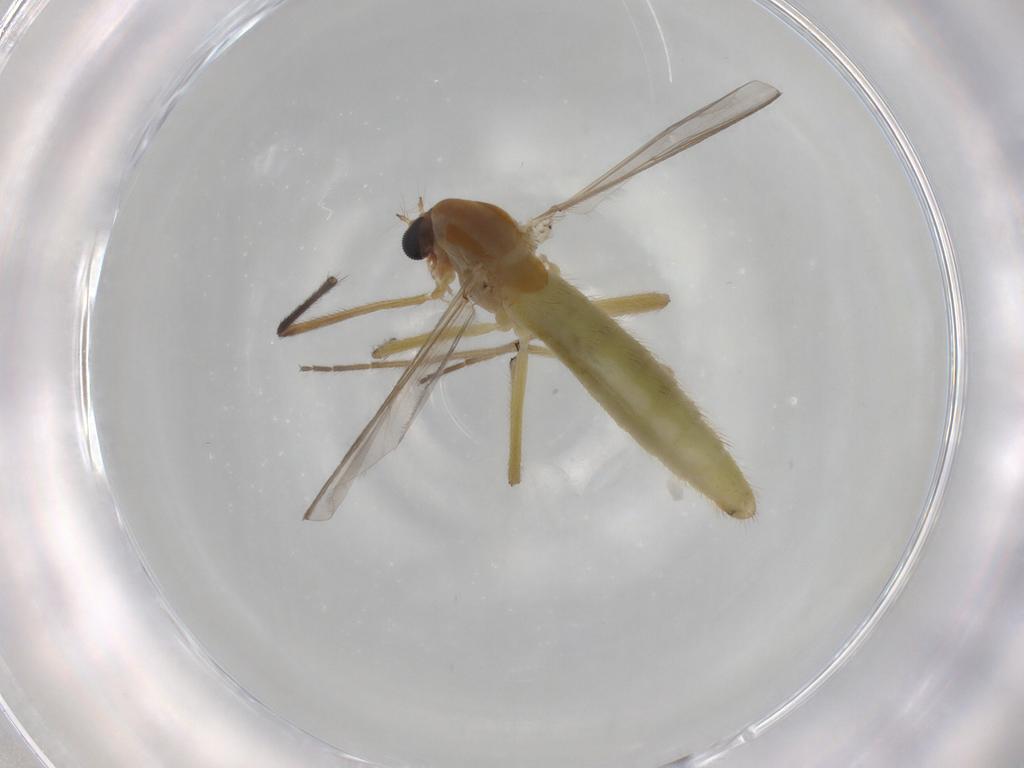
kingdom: Animalia
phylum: Arthropoda
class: Insecta
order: Diptera
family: Chironomidae
